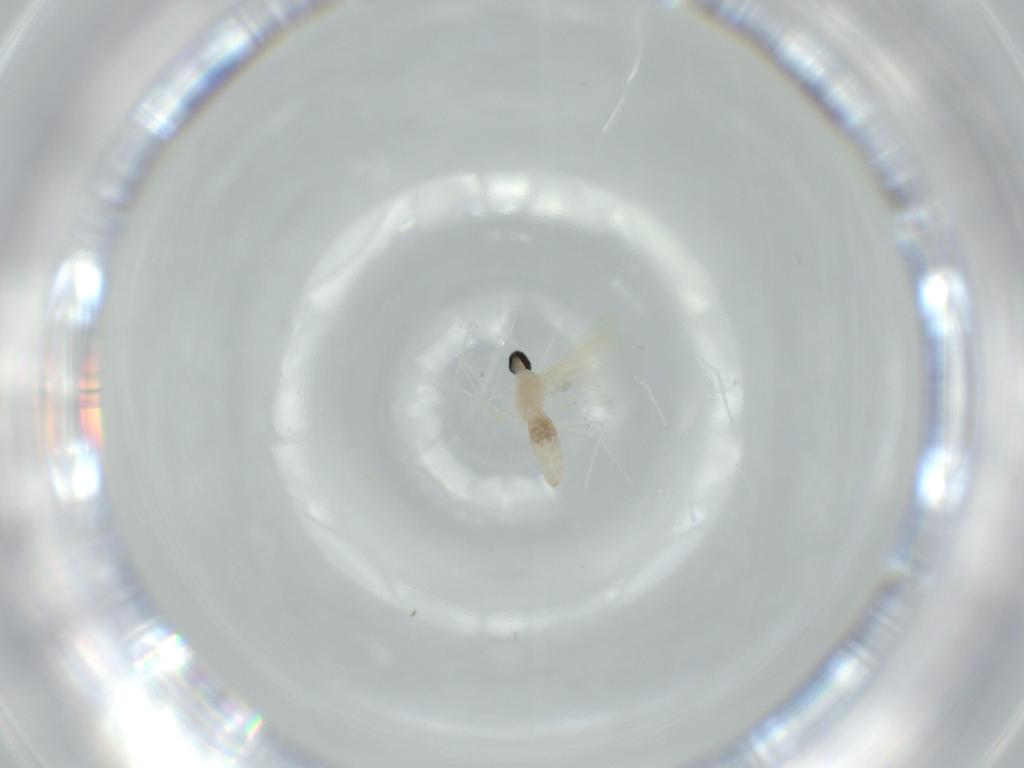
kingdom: Animalia
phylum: Arthropoda
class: Insecta
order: Diptera
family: Cecidomyiidae
